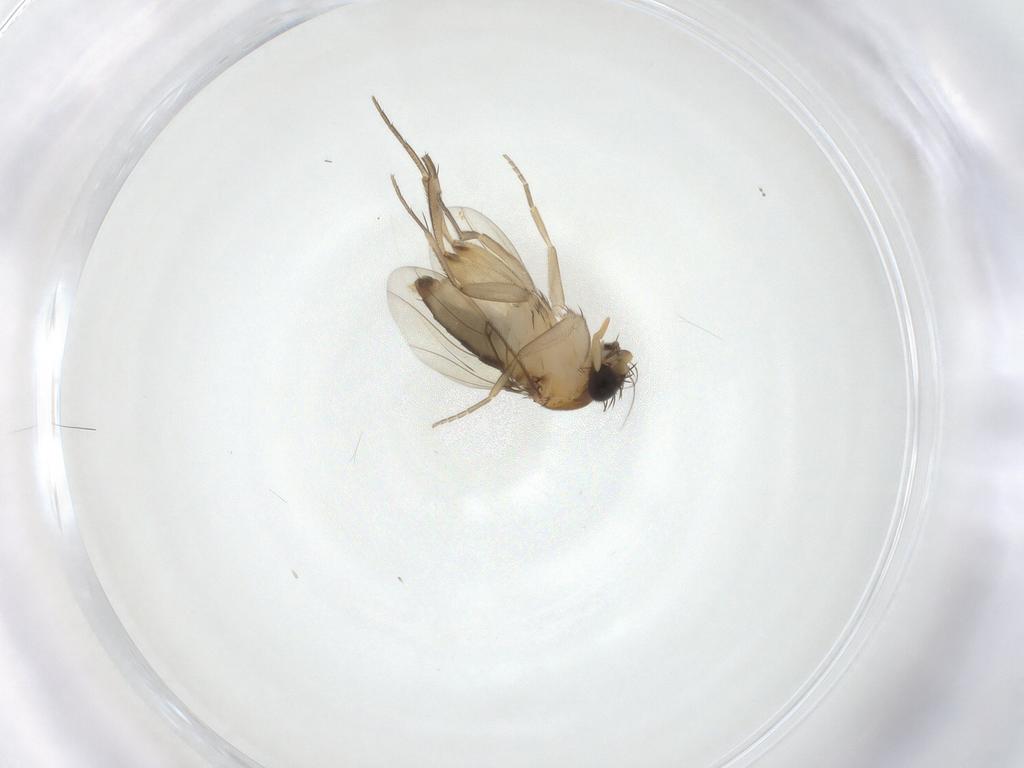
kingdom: Animalia
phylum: Arthropoda
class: Insecta
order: Diptera
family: Phoridae
